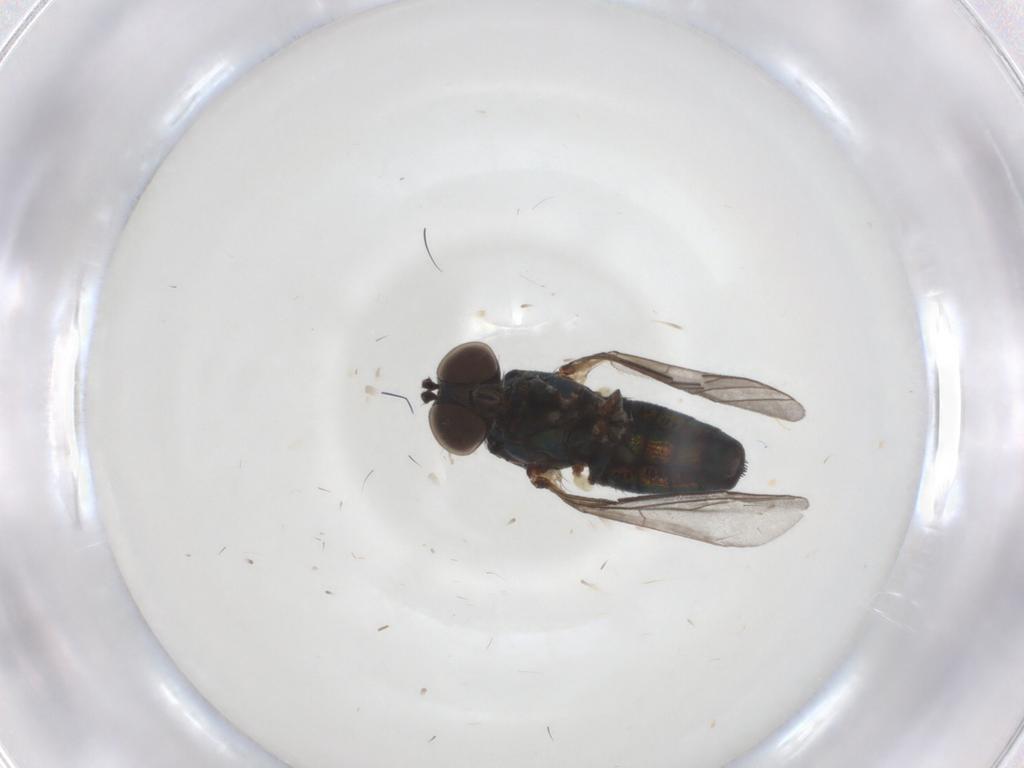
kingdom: Animalia
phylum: Arthropoda
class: Insecta
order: Diptera
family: Dolichopodidae
